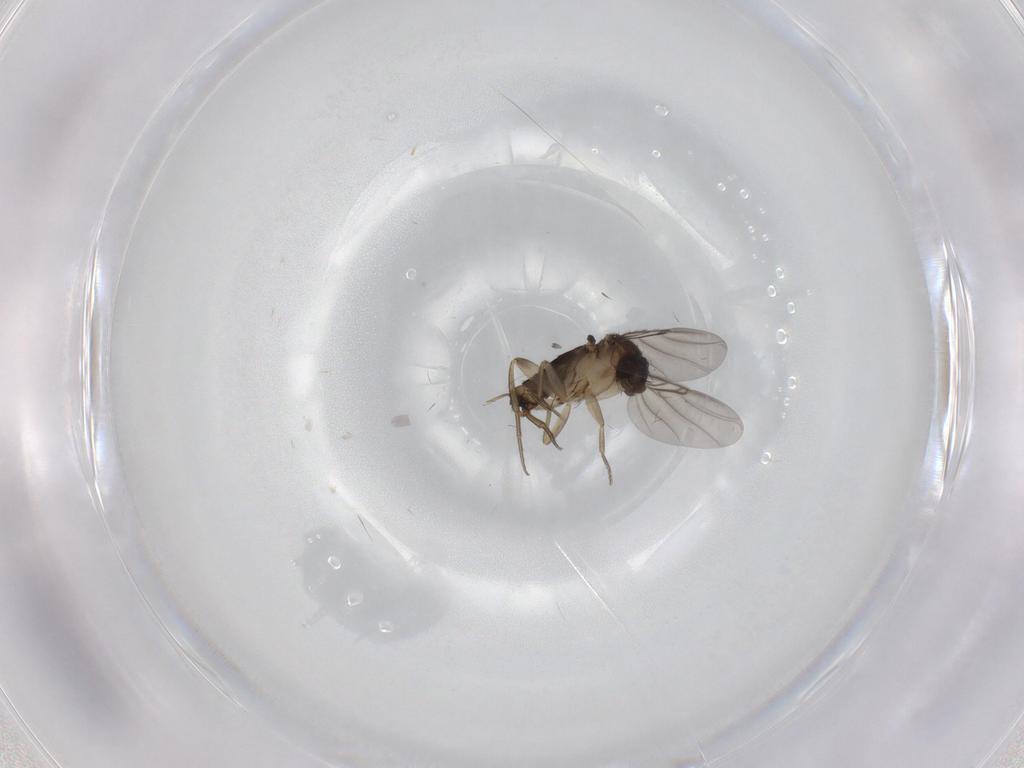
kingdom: Animalia
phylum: Arthropoda
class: Insecta
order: Diptera
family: Phoridae
